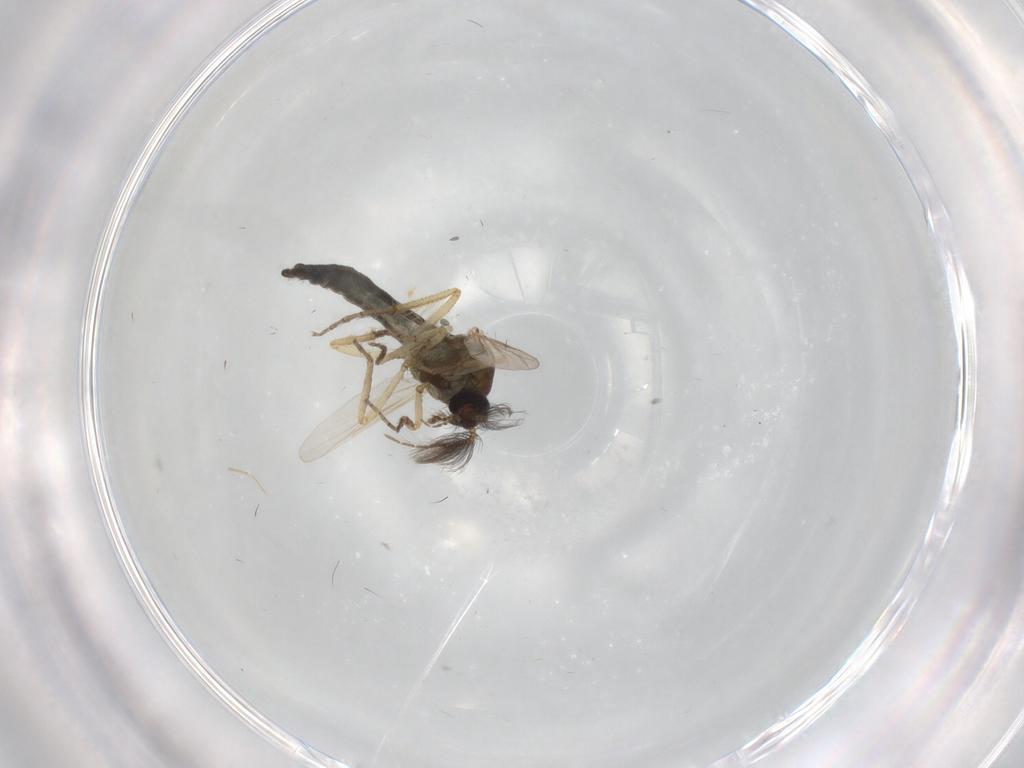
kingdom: Animalia
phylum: Arthropoda
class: Insecta
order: Diptera
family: Ceratopogonidae
